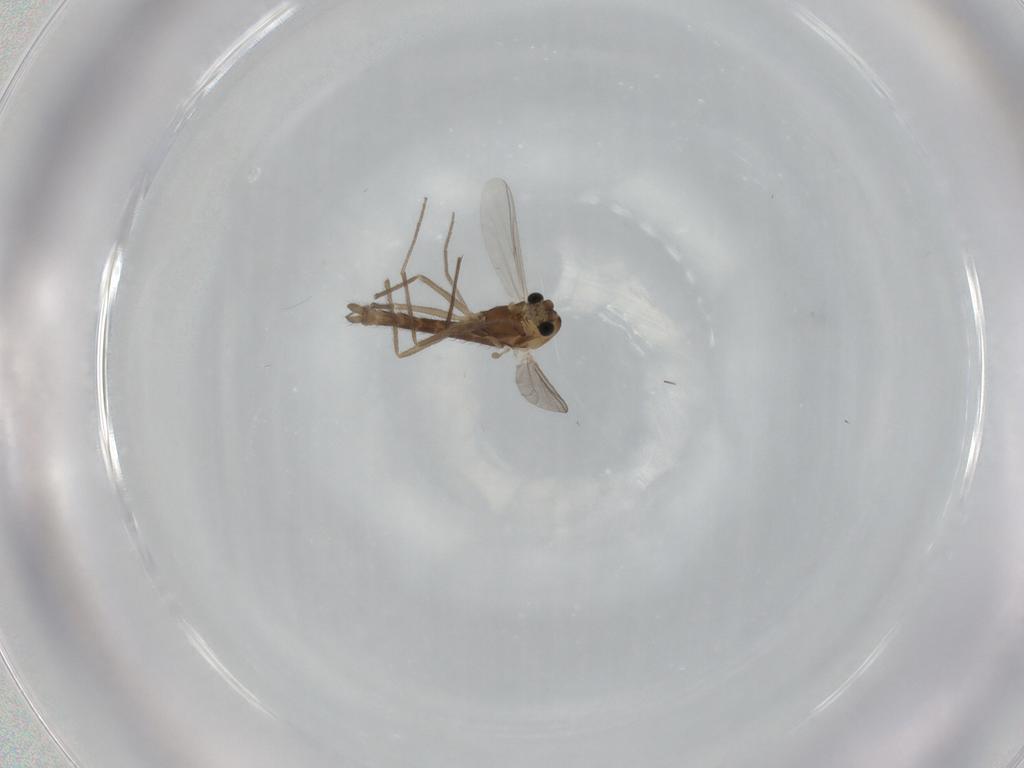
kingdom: Animalia
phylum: Arthropoda
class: Insecta
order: Diptera
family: Chironomidae
